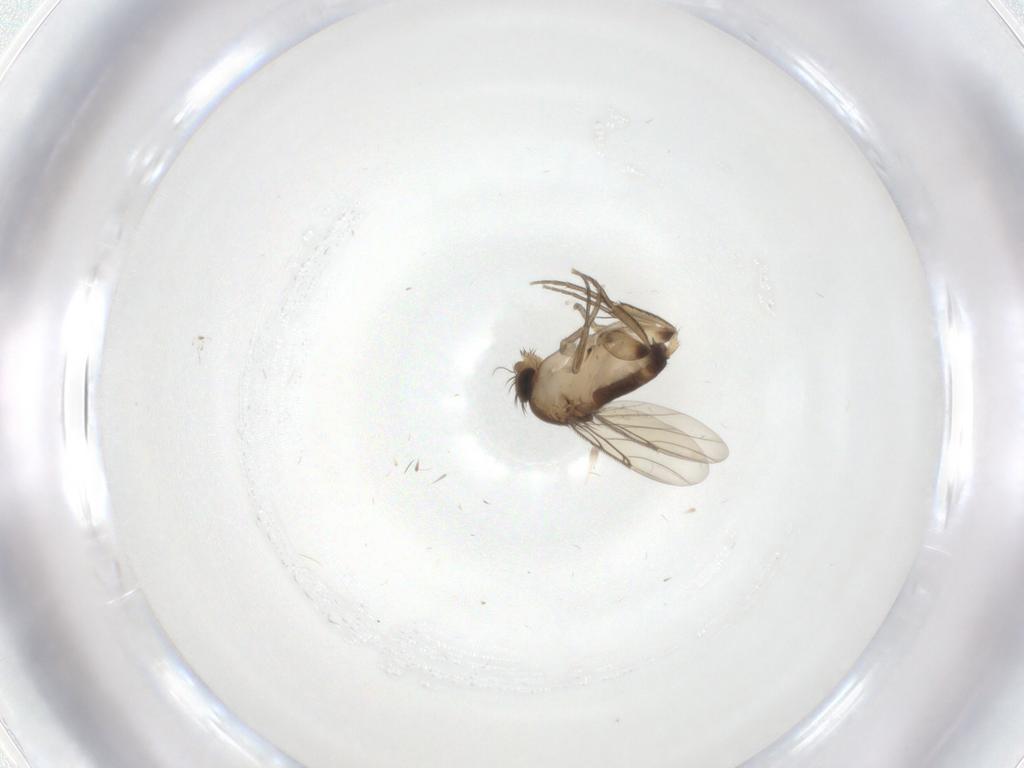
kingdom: Animalia
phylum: Arthropoda
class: Insecta
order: Diptera
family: Phoridae
